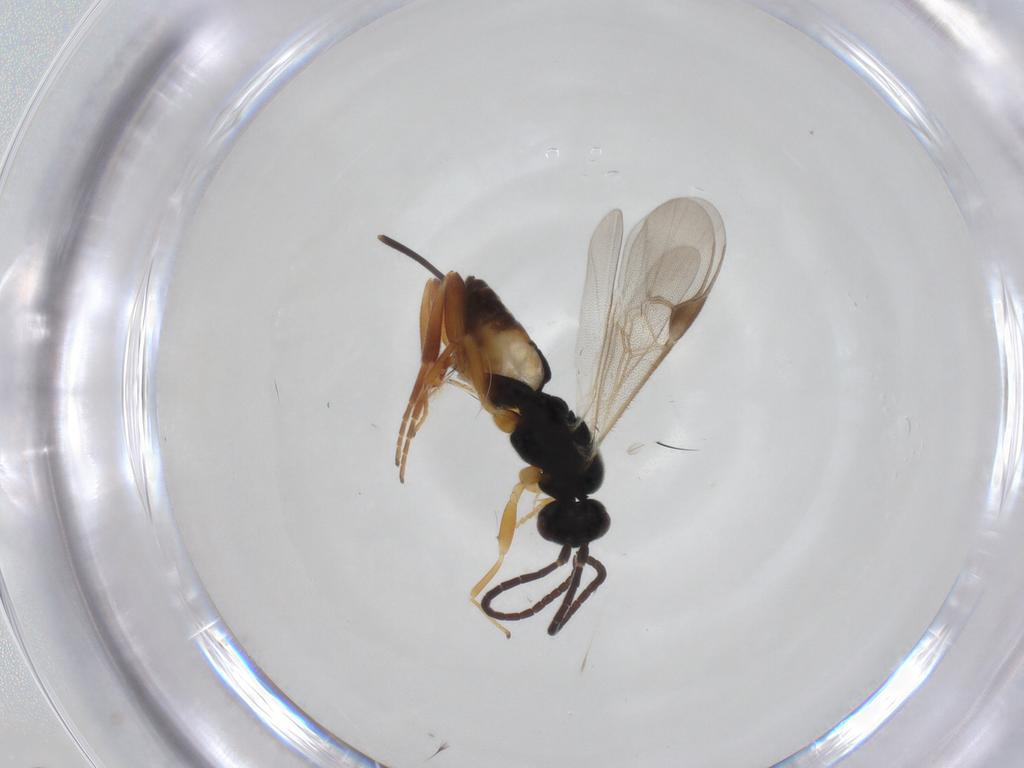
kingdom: Animalia
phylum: Arthropoda
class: Insecta
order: Hymenoptera
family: Braconidae
